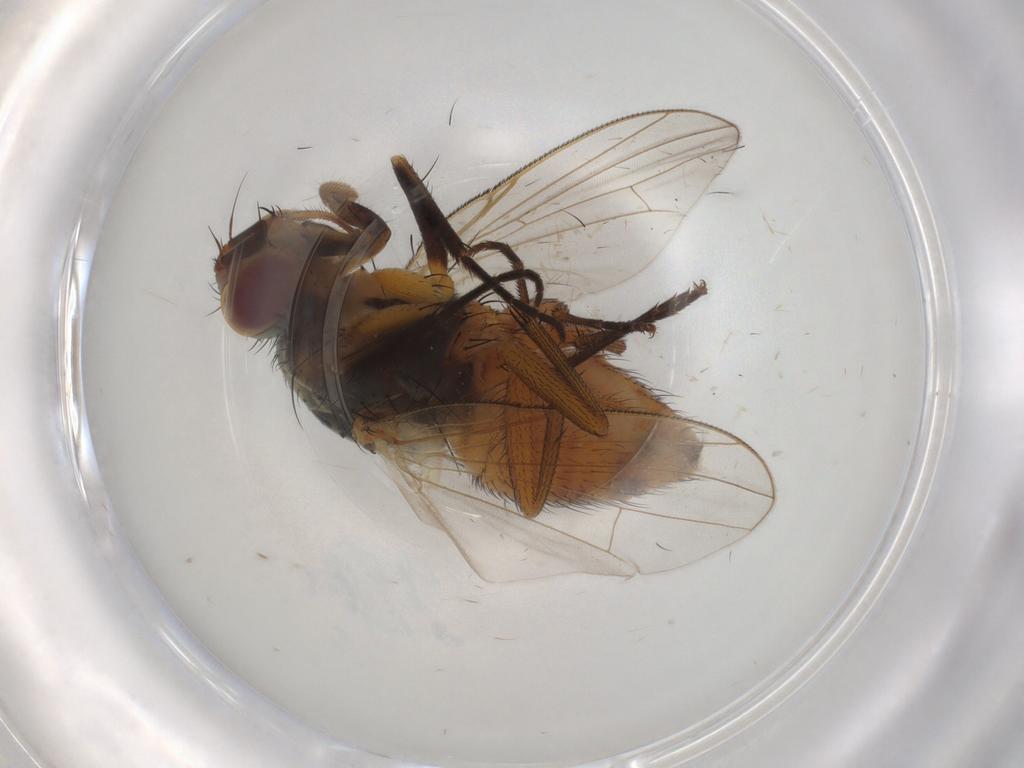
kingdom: Animalia
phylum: Arthropoda
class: Insecta
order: Diptera
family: Muscidae
